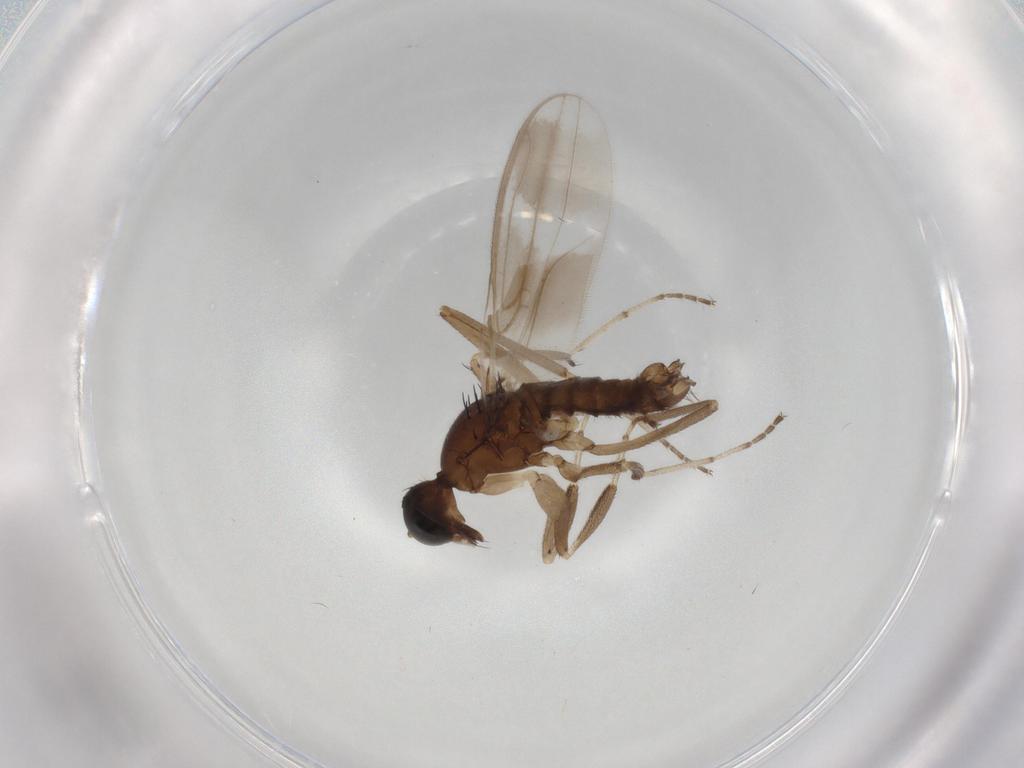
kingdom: Animalia
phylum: Arthropoda
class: Insecta
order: Diptera
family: Hybotidae
